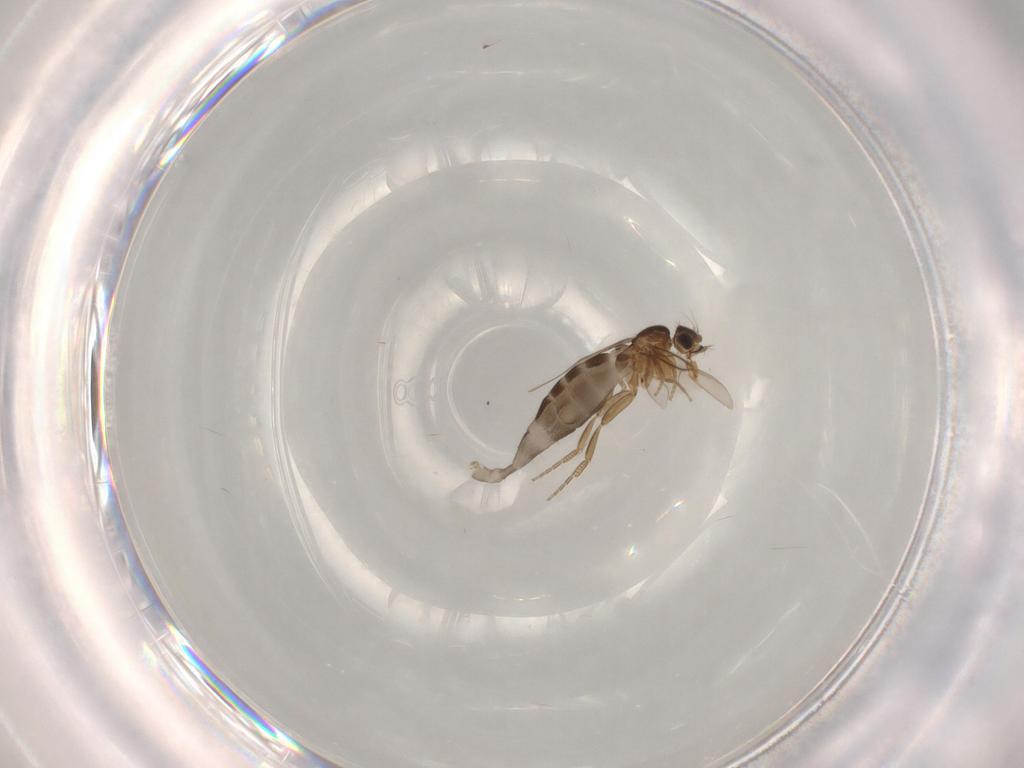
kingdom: Animalia
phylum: Arthropoda
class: Insecta
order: Diptera
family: Phoridae
